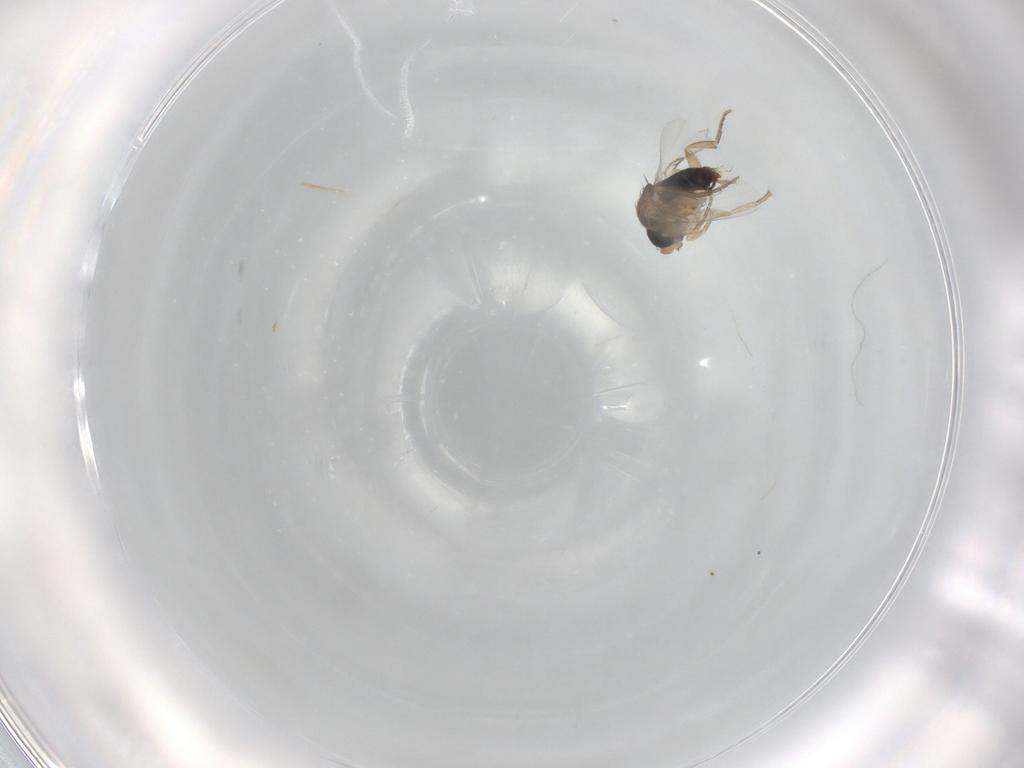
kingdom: Animalia
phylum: Arthropoda
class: Insecta
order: Diptera
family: Phoridae
